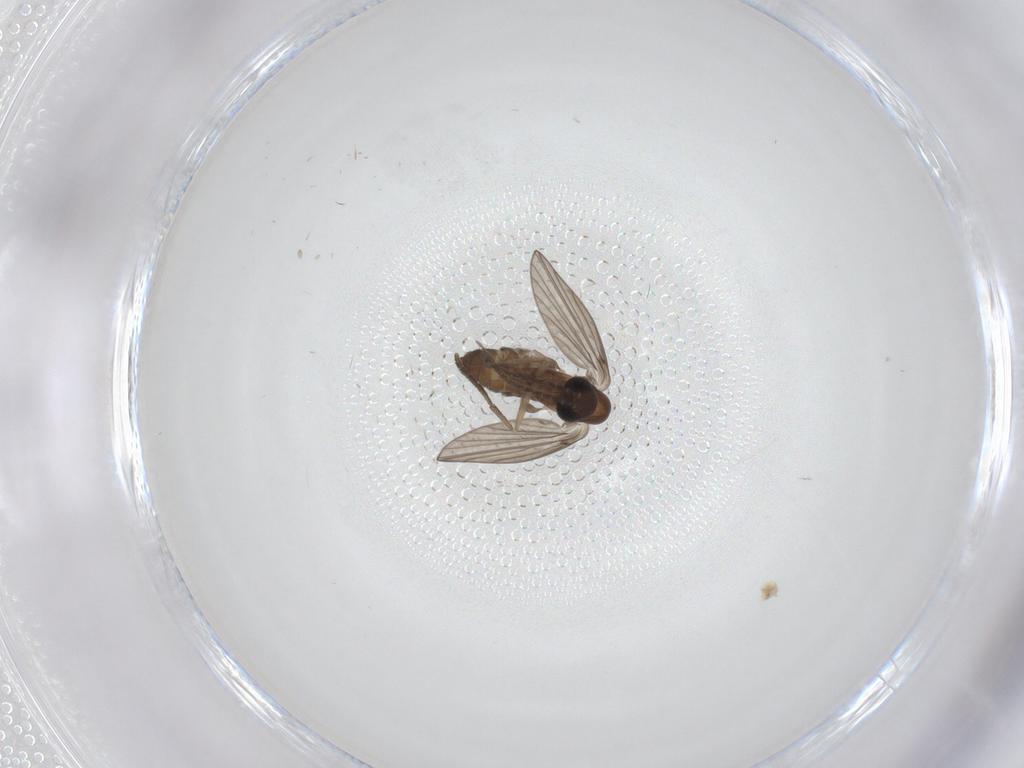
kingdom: Animalia
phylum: Arthropoda
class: Insecta
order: Diptera
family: Psychodidae
